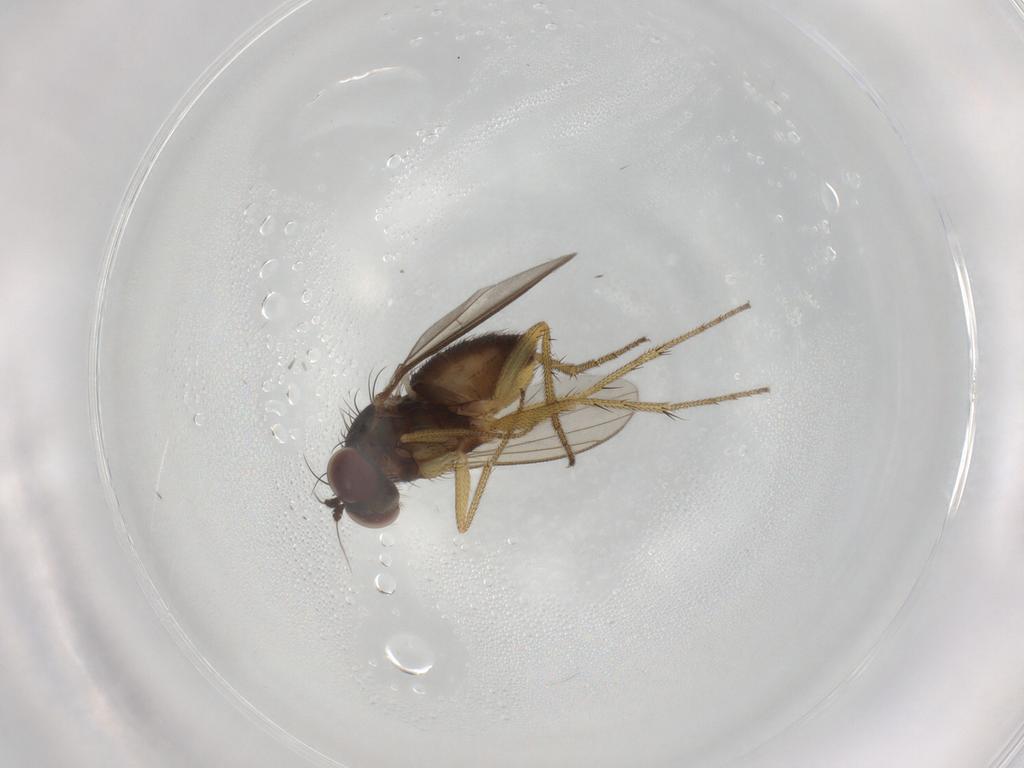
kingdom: Animalia
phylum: Arthropoda
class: Insecta
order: Diptera
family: Dolichopodidae
